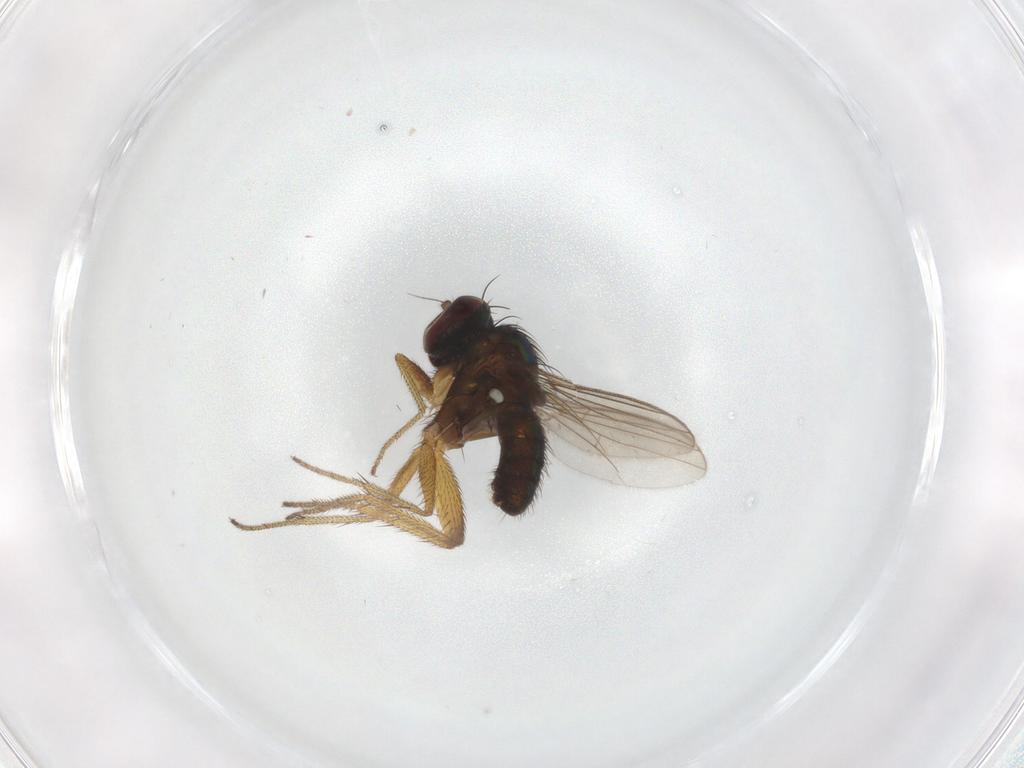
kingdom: Animalia
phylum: Arthropoda
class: Insecta
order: Diptera
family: Dolichopodidae
